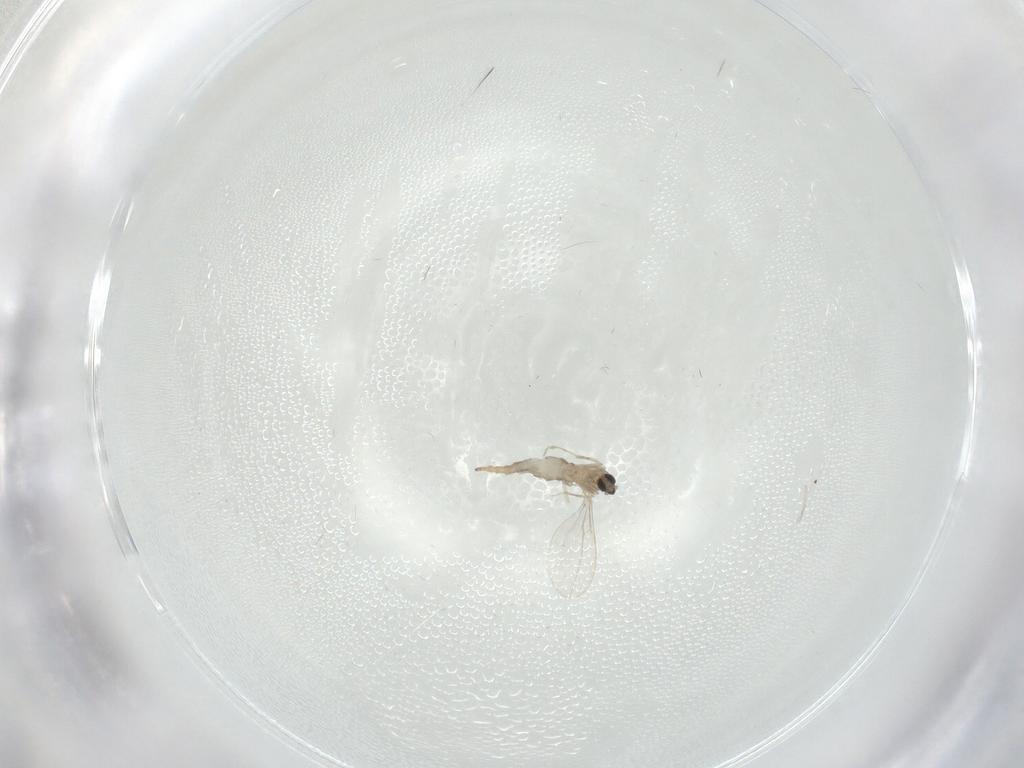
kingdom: Animalia
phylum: Arthropoda
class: Insecta
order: Diptera
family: Cecidomyiidae
